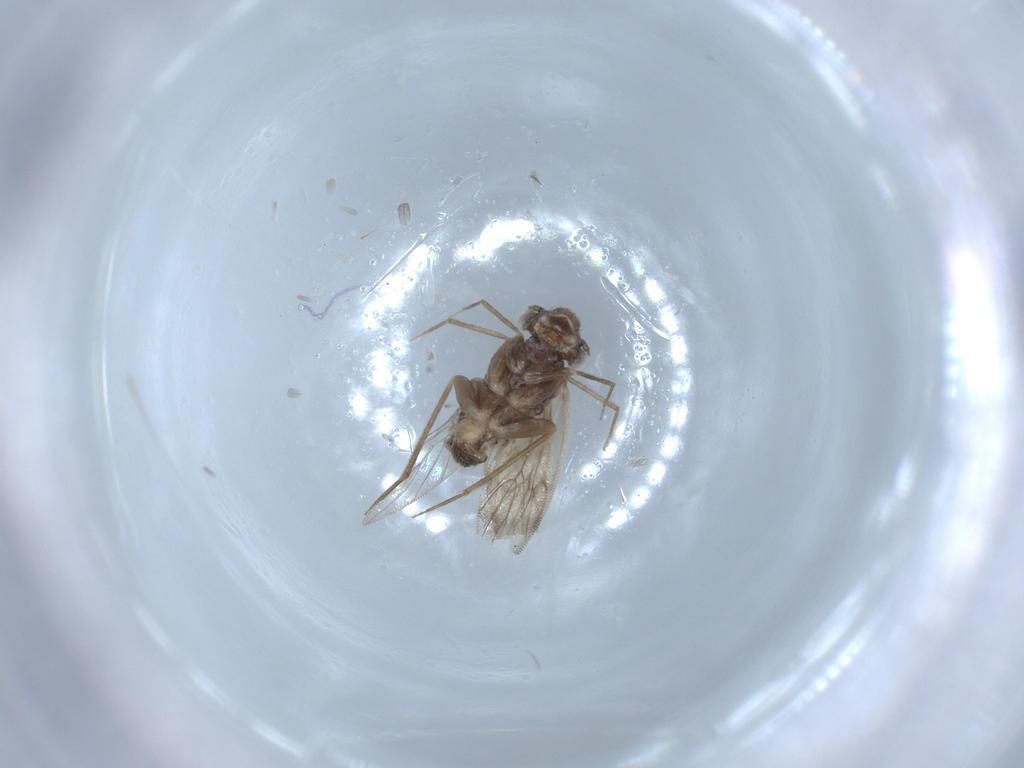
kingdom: Animalia
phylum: Arthropoda
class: Insecta
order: Psocodea
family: Lepidopsocidae
